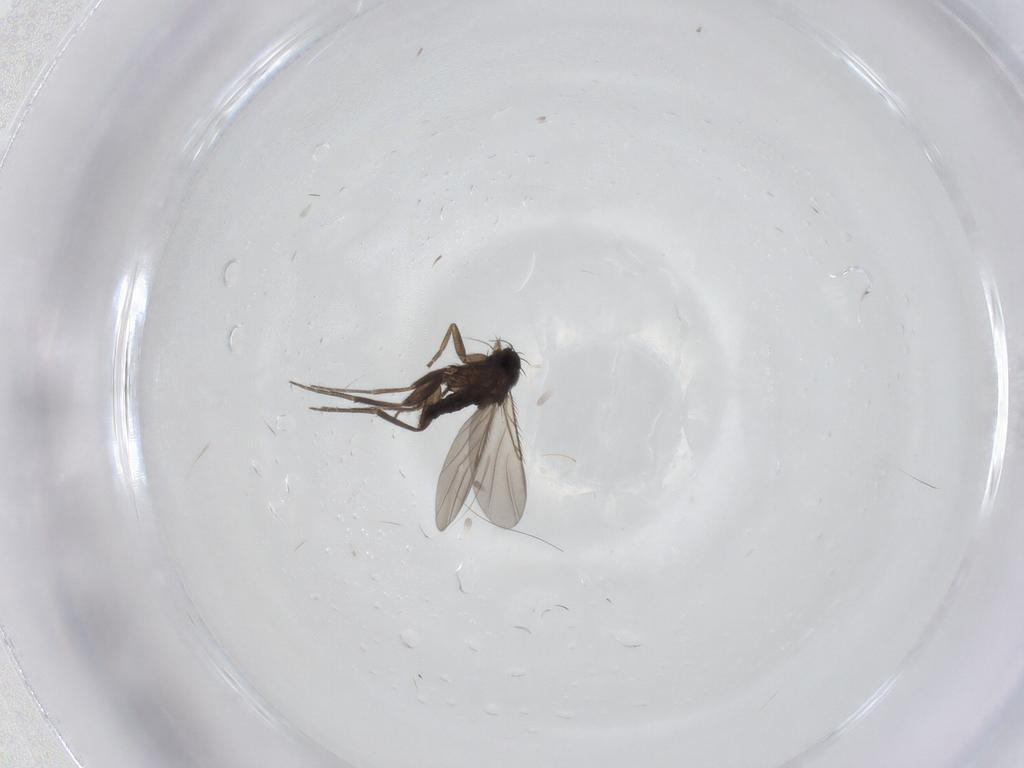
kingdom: Animalia
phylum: Arthropoda
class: Insecta
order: Diptera
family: Phoridae
